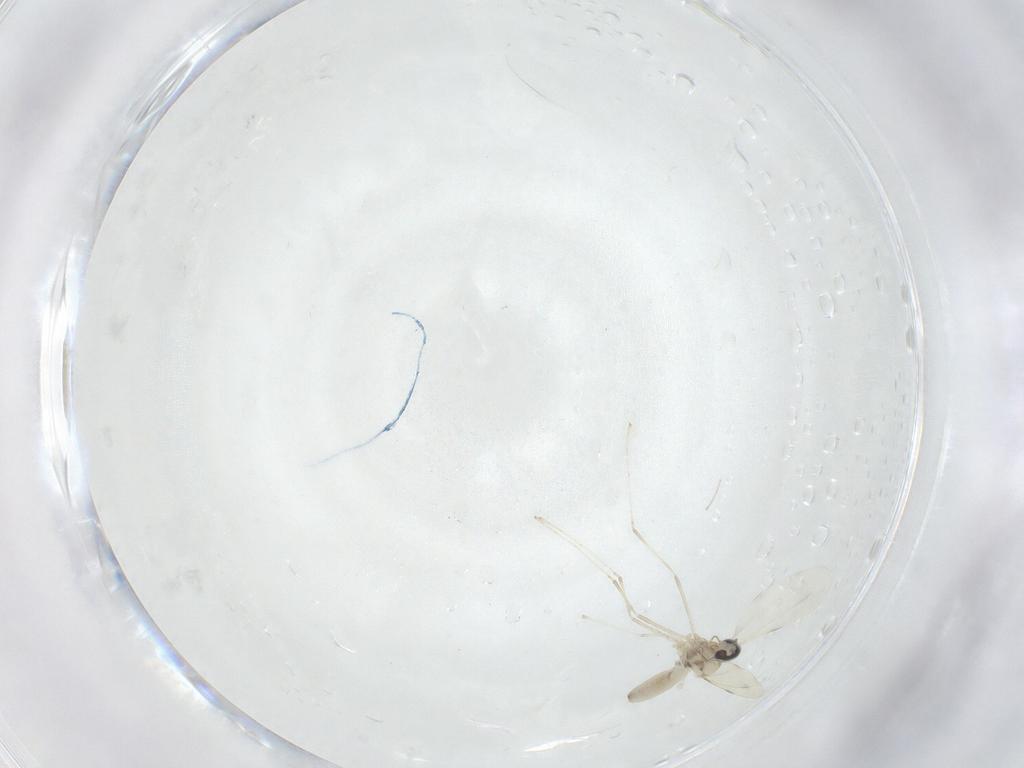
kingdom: Animalia
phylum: Arthropoda
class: Insecta
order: Diptera
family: Cecidomyiidae
